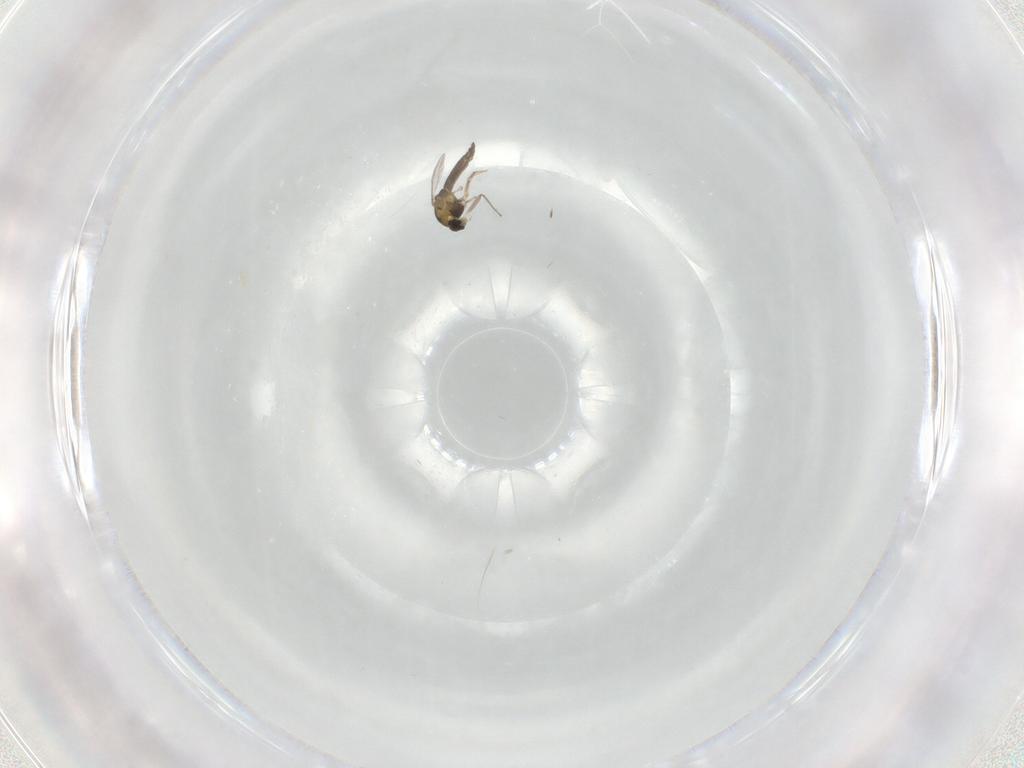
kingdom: Animalia
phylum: Arthropoda
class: Insecta
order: Diptera
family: Chironomidae
